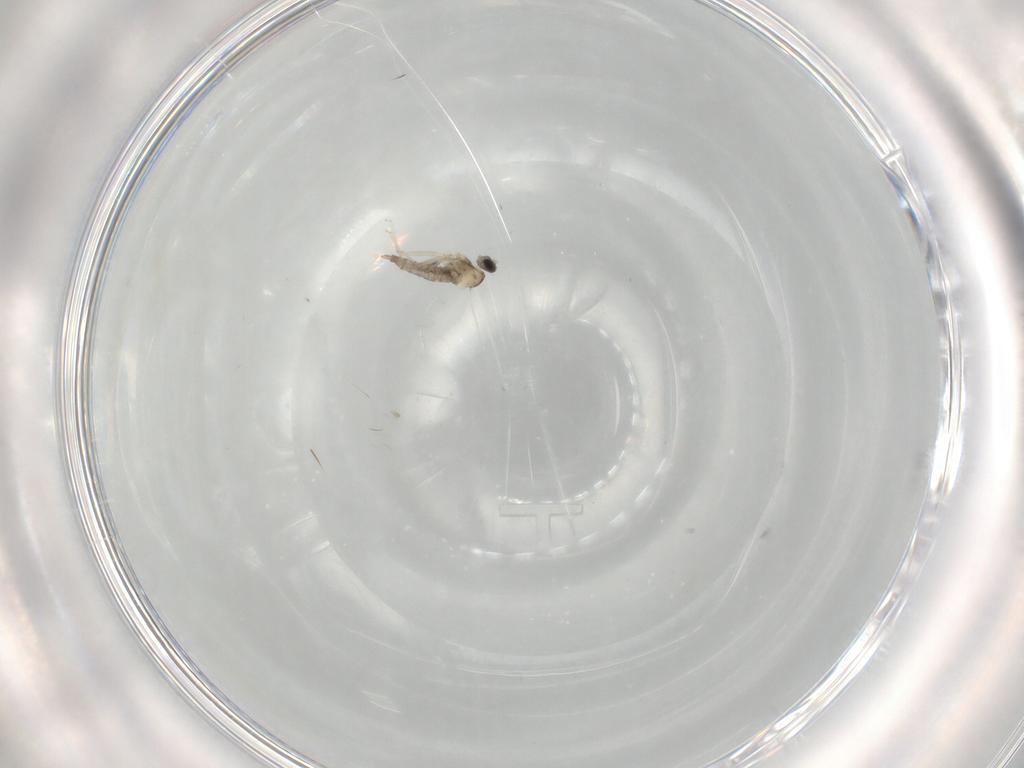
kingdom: Animalia
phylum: Arthropoda
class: Insecta
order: Diptera
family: Cecidomyiidae
